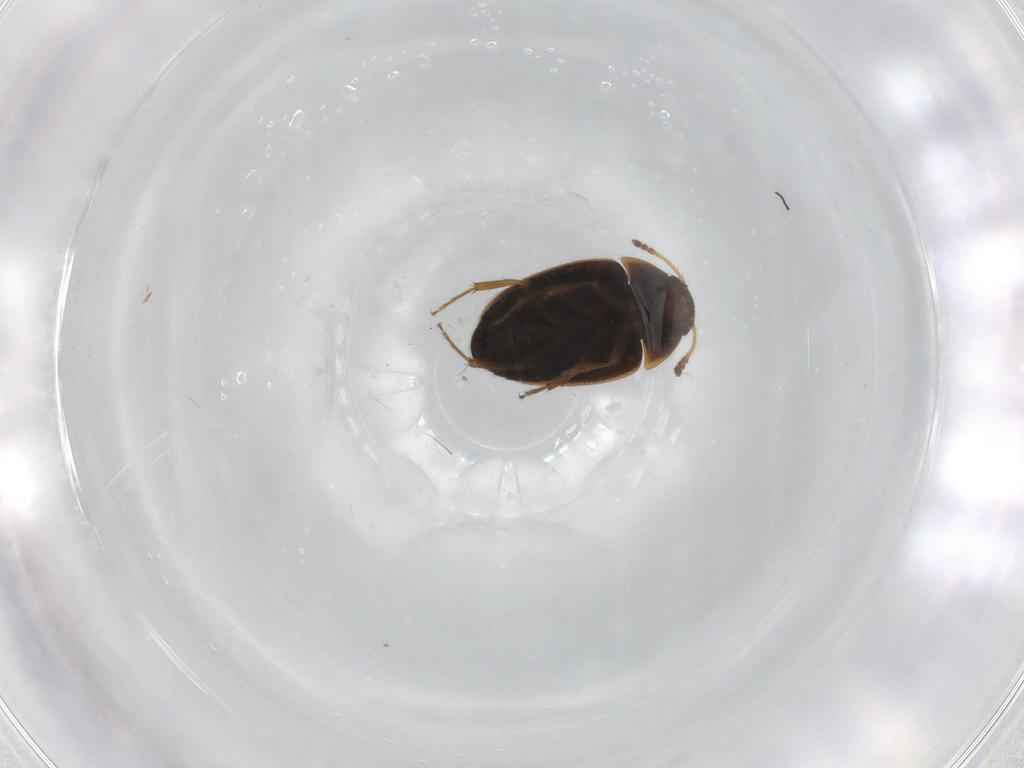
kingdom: Animalia
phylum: Arthropoda
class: Insecta
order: Coleoptera
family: Mycetophagidae
